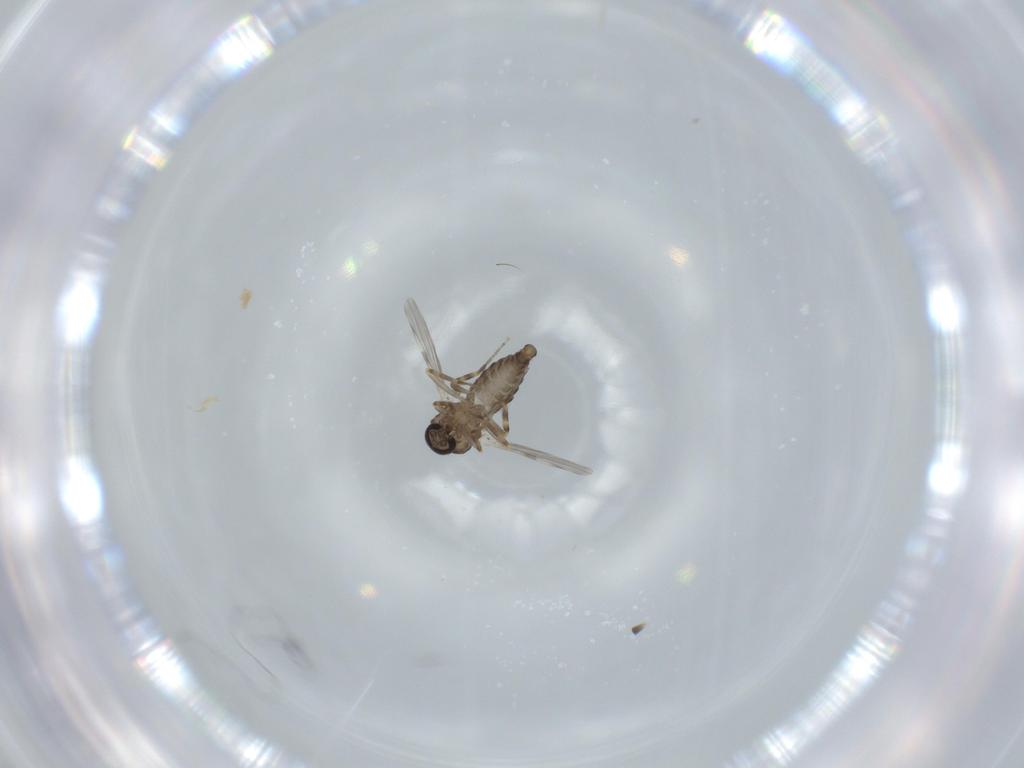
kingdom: Animalia
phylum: Arthropoda
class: Insecta
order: Diptera
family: Ceratopogonidae
